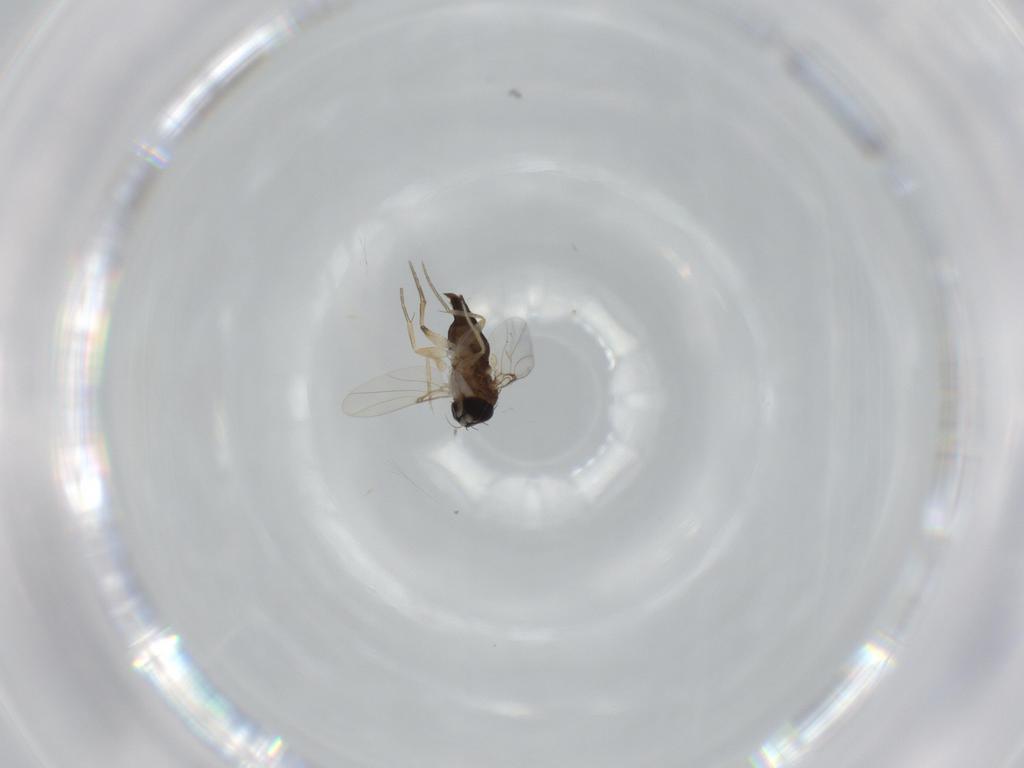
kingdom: Animalia
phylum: Arthropoda
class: Insecta
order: Diptera
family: Phoridae
